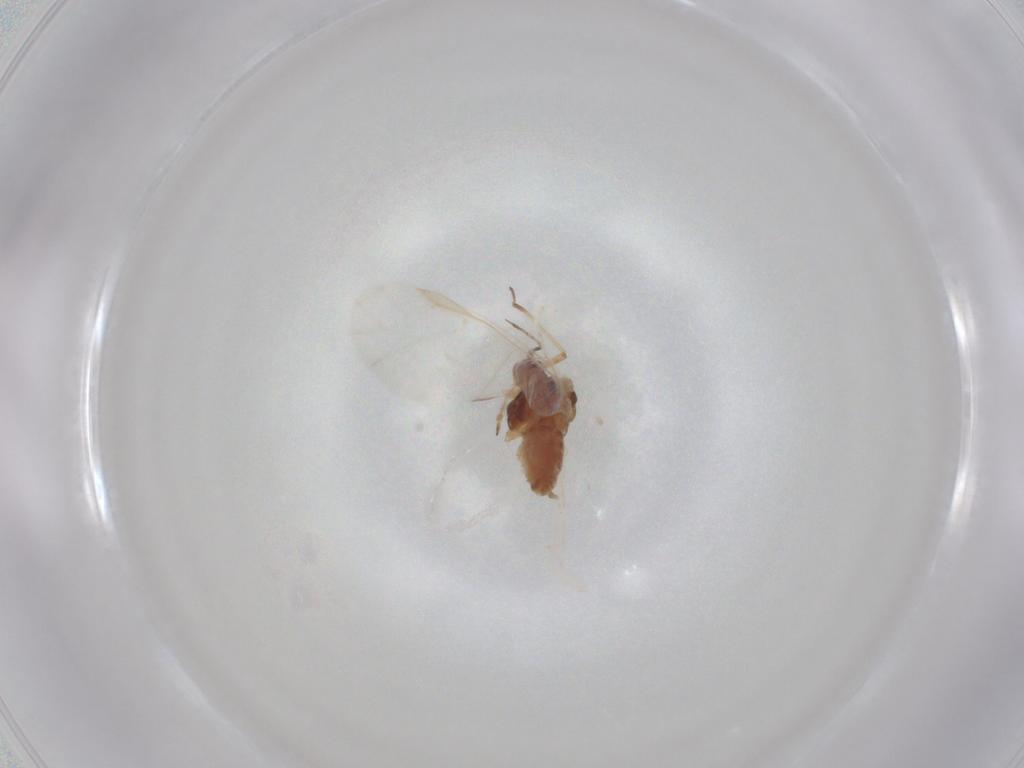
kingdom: Animalia
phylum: Arthropoda
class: Insecta
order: Hemiptera
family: Aphididae
